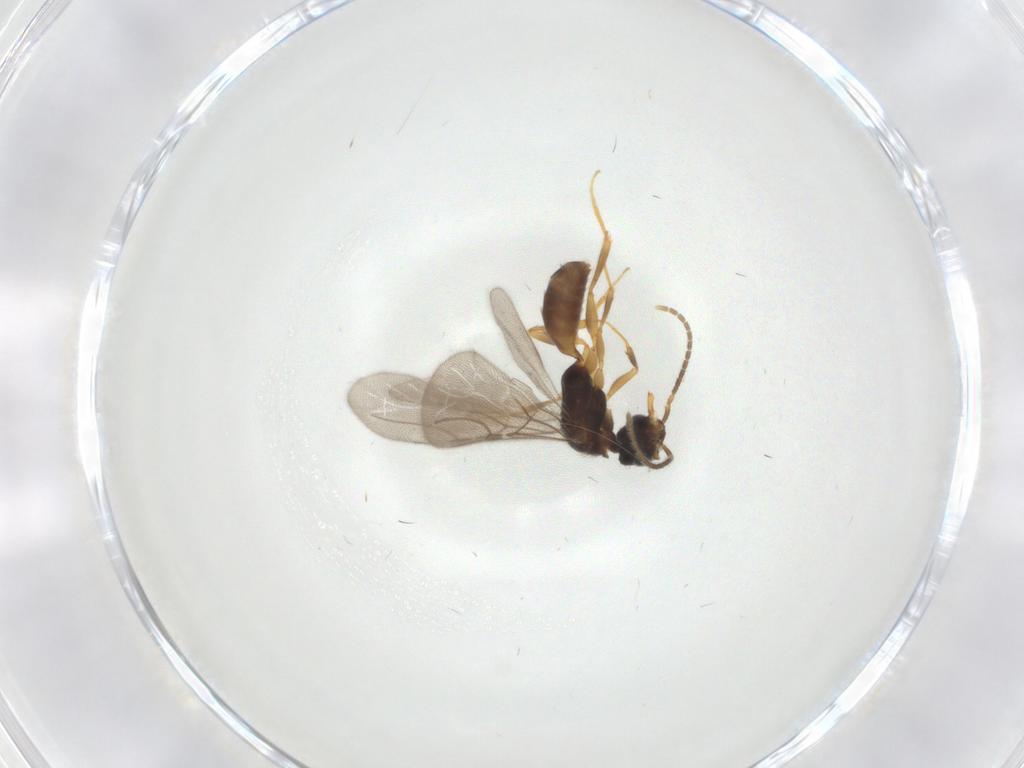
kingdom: Animalia
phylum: Arthropoda
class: Insecta
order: Hymenoptera
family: Bethylidae
